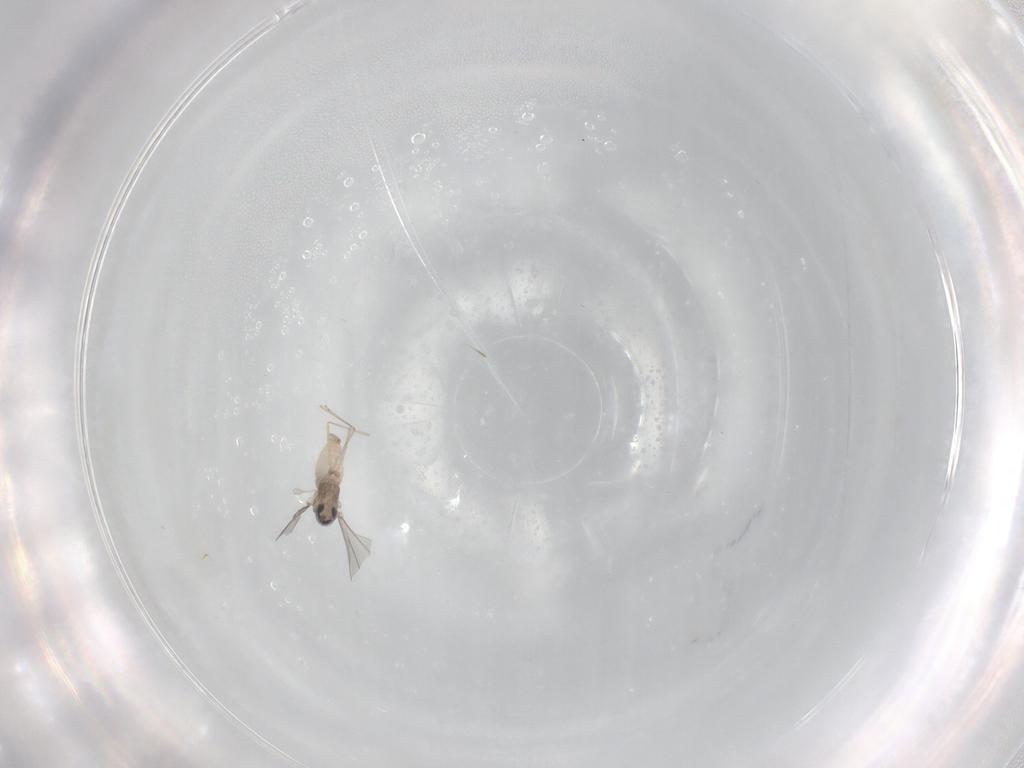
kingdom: Animalia
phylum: Arthropoda
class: Insecta
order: Diptera
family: Cecidomyiidae
